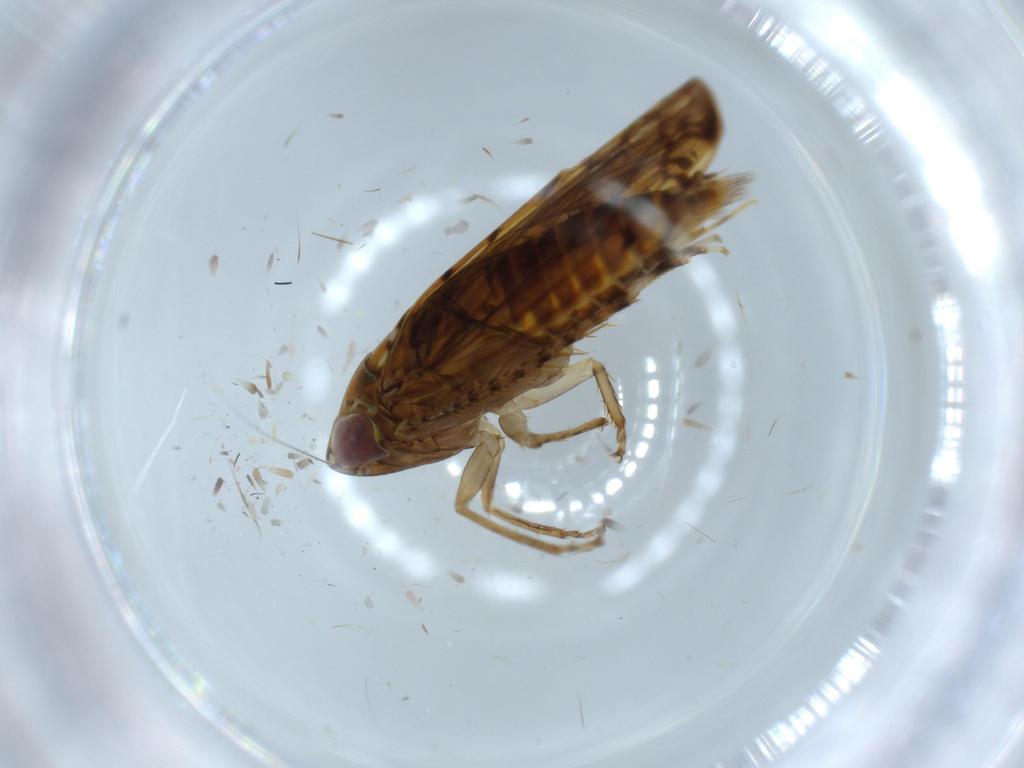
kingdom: Animalia
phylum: Arthropoda
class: Insecta
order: Hemiptera
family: Cicadellidae
